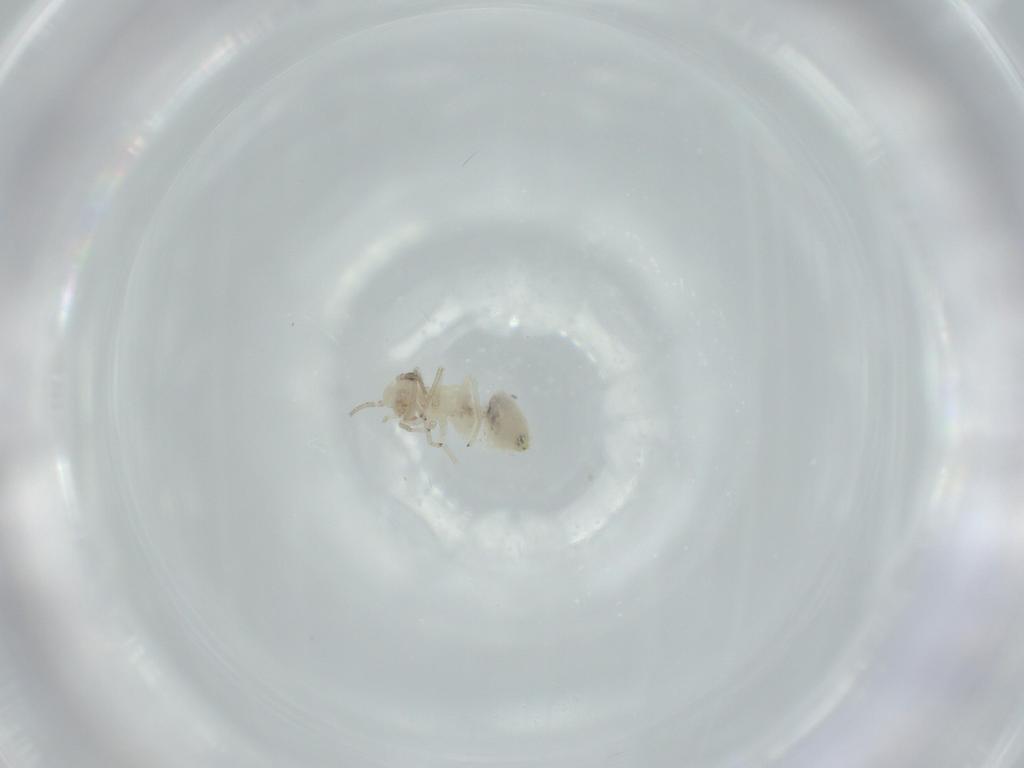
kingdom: Animalia
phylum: Arthropoda
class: Insecta
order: Psocodea
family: Caeciliusidae
